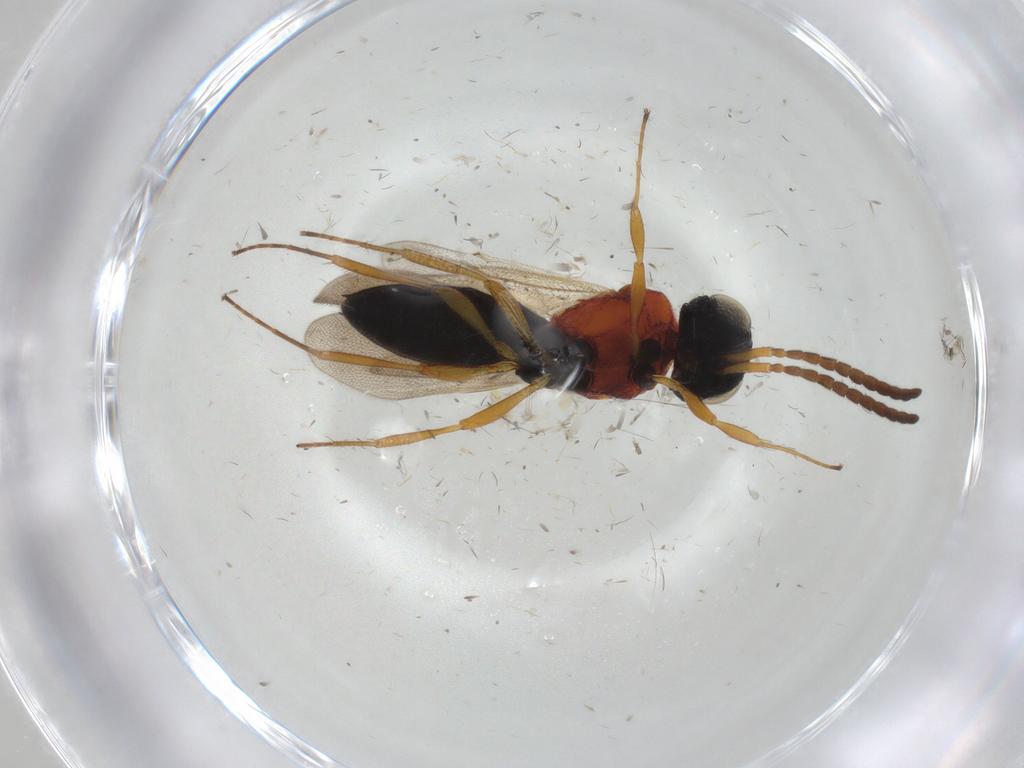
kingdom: Animalia
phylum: Arthropoda
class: Insecta
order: Hymenoptera
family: Scelionidae
